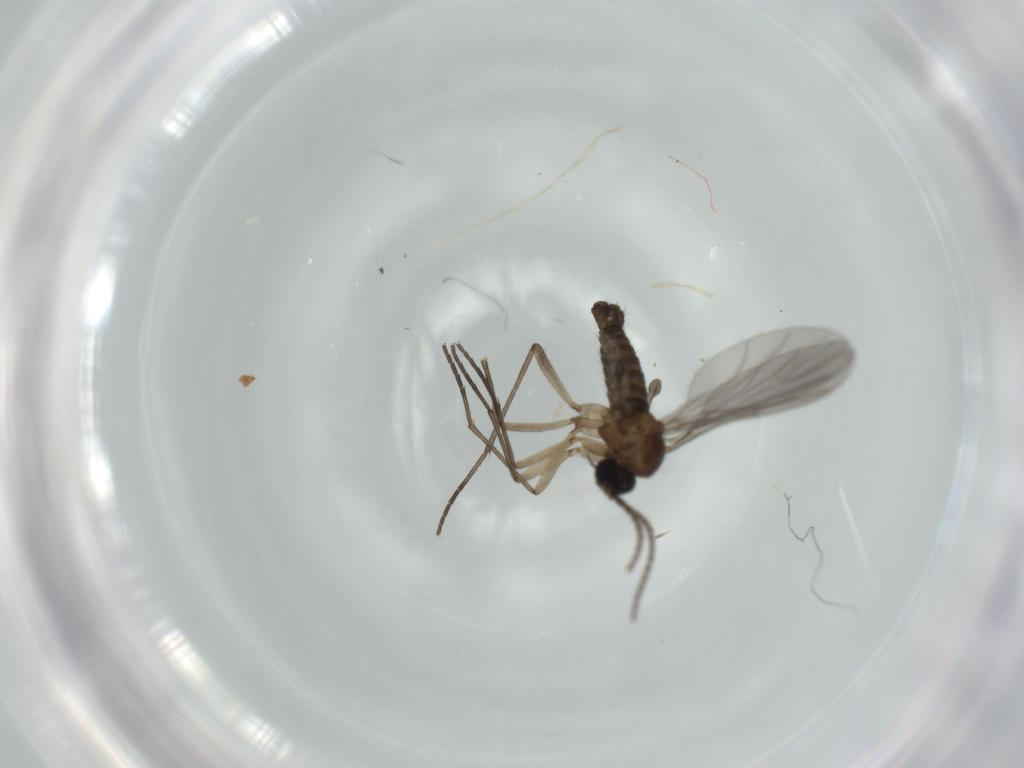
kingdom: Animalia
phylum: Arthropoda
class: Insecta
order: Diptera
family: Sciaridae
